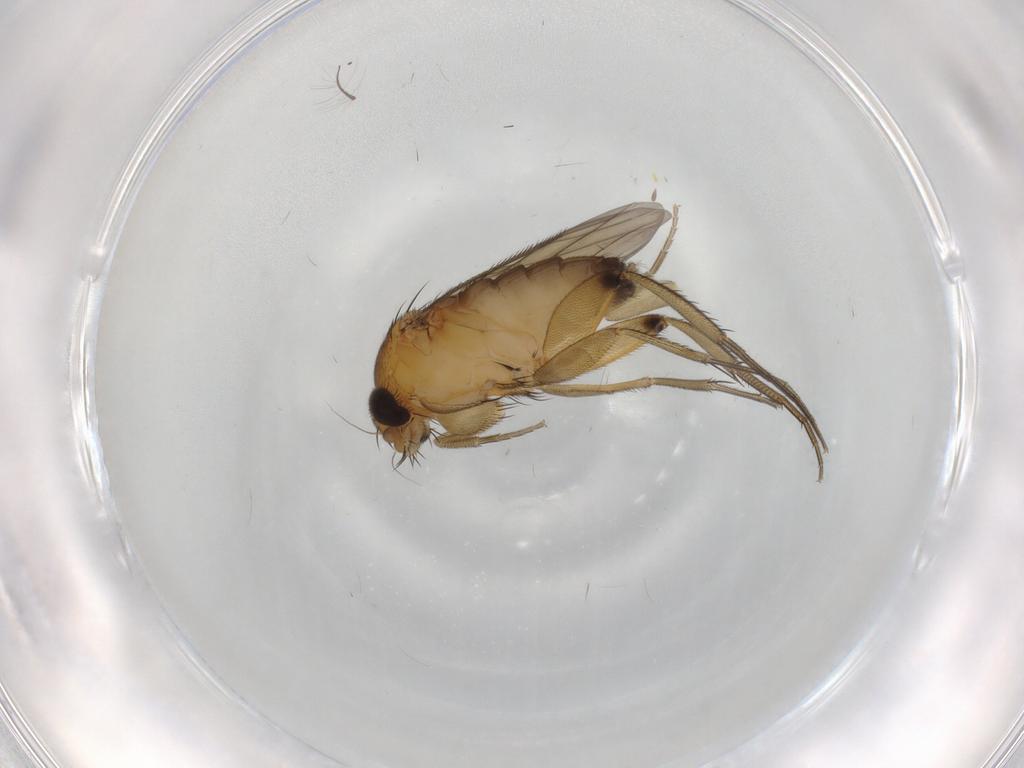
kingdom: Animalia
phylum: Arthropoda
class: Insecta
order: Diptera
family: Phoridae
